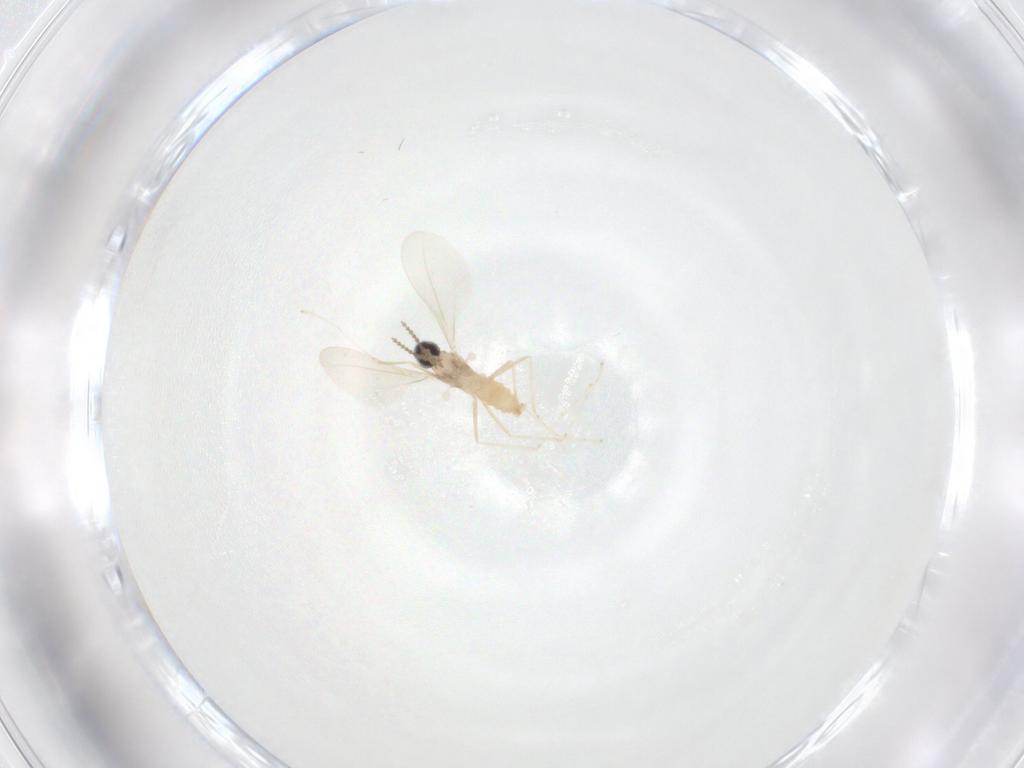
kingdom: Animalia
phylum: Arthropoda
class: Insecta
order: Diptera
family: Cecidomyiidae
